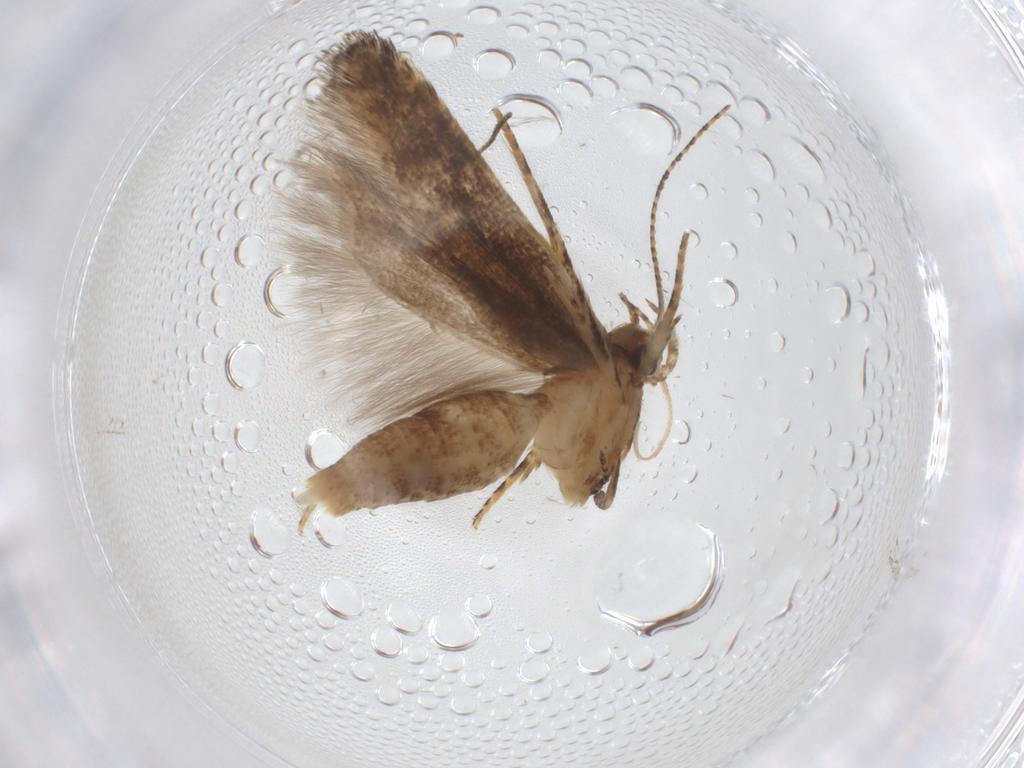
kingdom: Animalia
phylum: Arthropoda
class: Insecta
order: Lepidoptera
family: Gelechiidae
